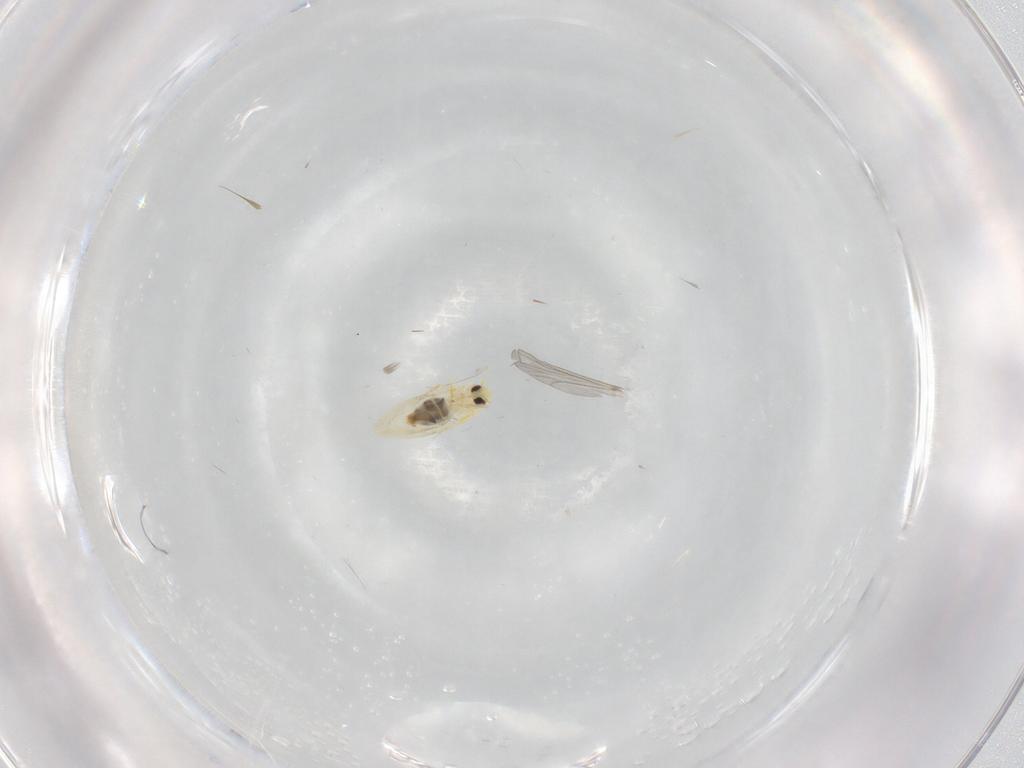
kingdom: Animalia
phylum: Arthropoda
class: Insecta
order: Hemiptera
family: Aleyrodidae
